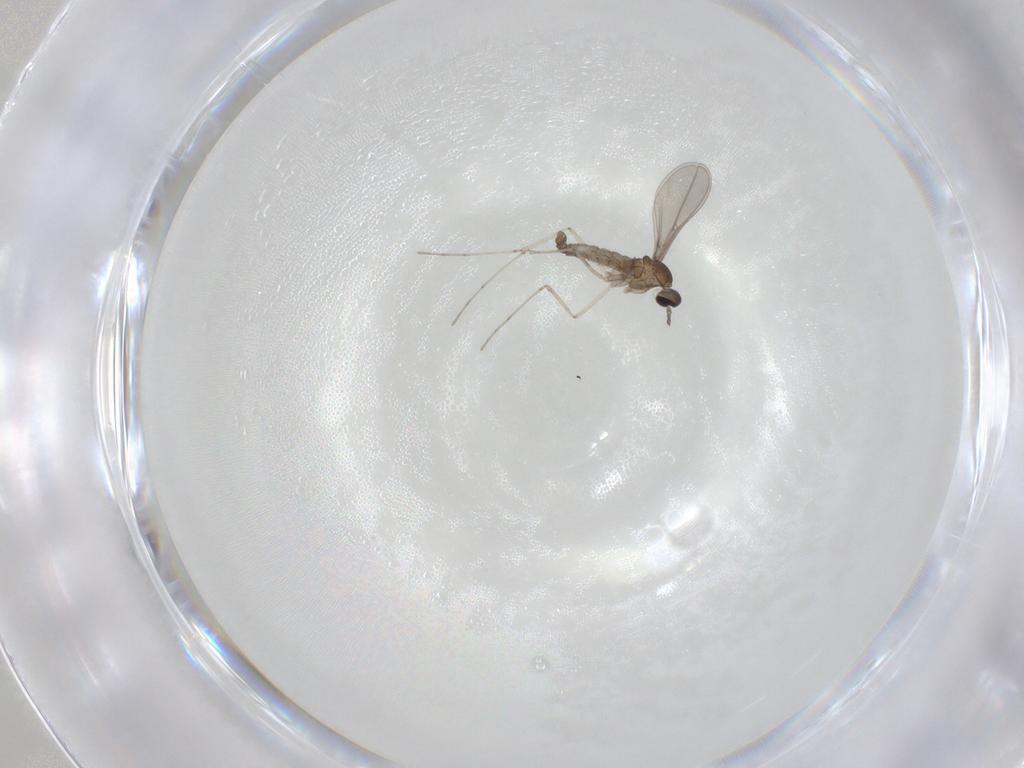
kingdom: Animalia
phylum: Arthropoda
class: Insecta
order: Diptera
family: Cecidomyiidae
